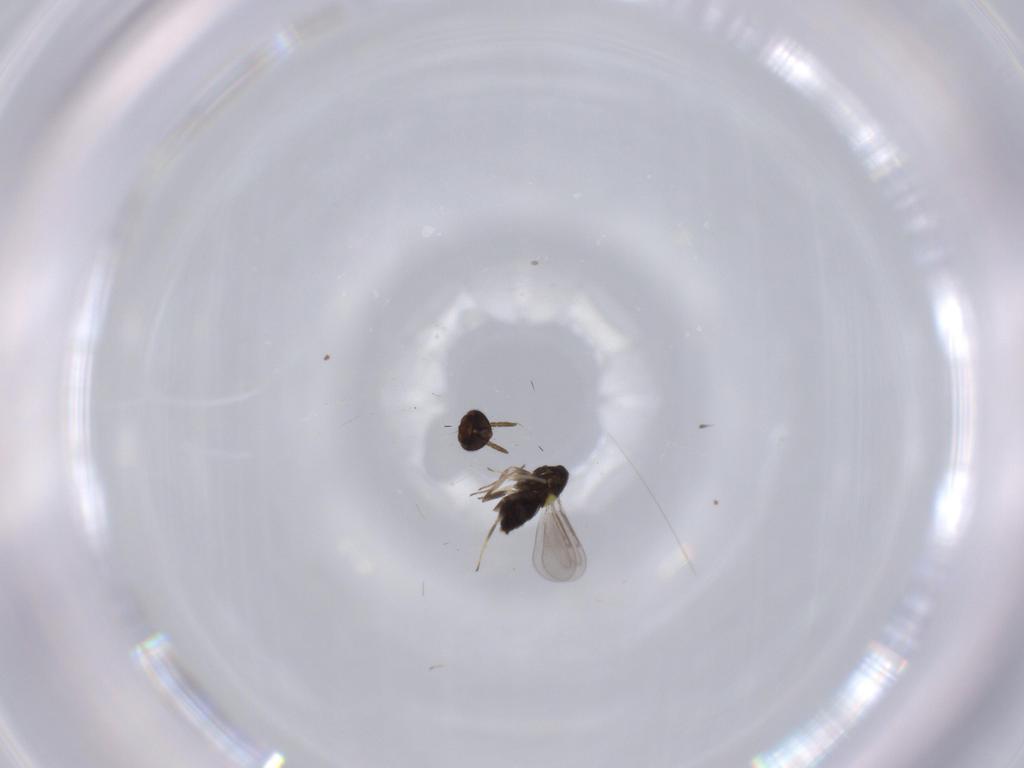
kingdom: Animalia
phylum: Arthropoda
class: Insecta
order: Hymenoptera
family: Aphelinidae
